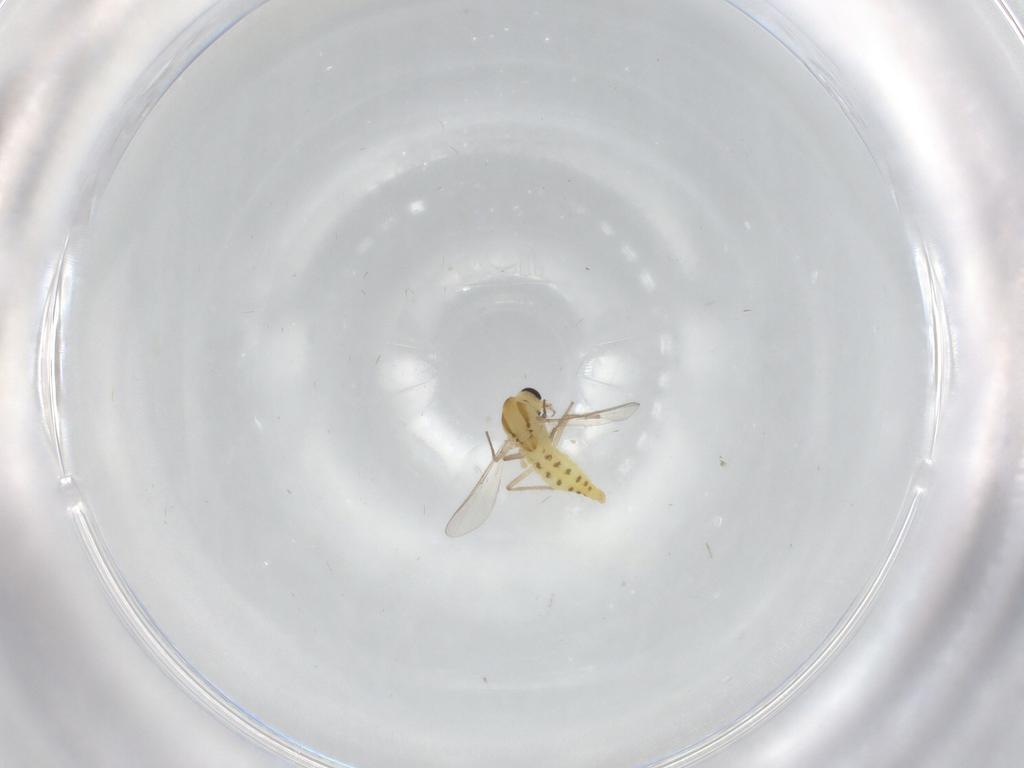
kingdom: Animalia
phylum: Arthropoda
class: Insecta
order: Diptera
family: Chironomidae
